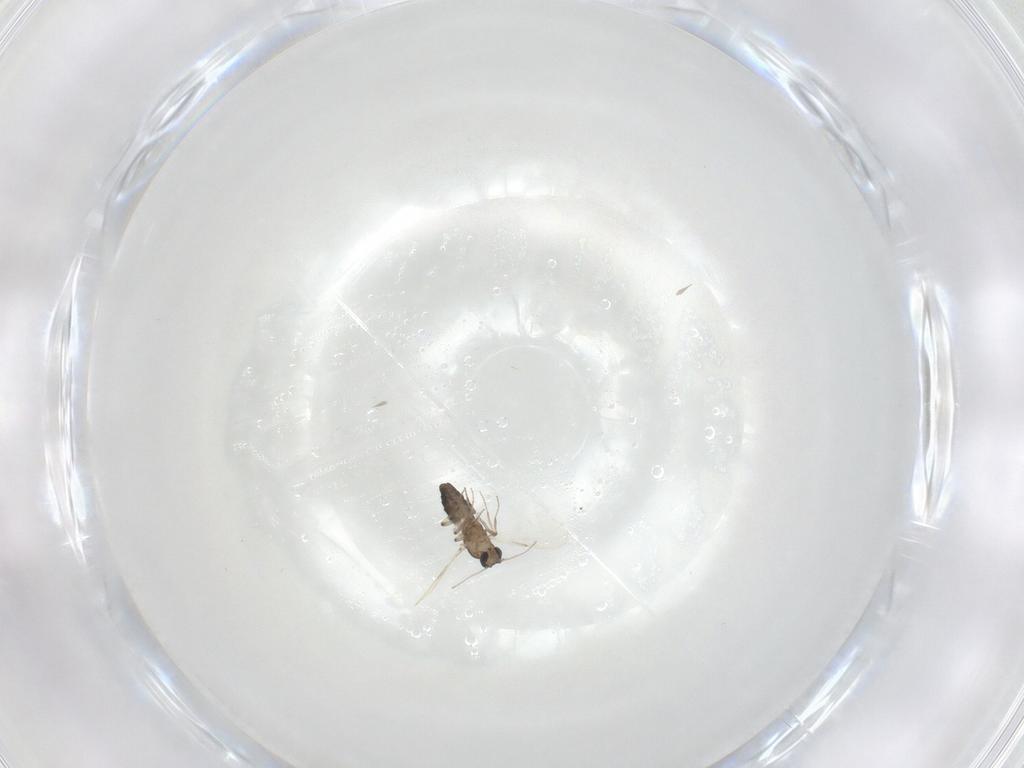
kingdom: Animalia
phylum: Arthropoda
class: Insecta
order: Diptera
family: Ceratopogonidae
